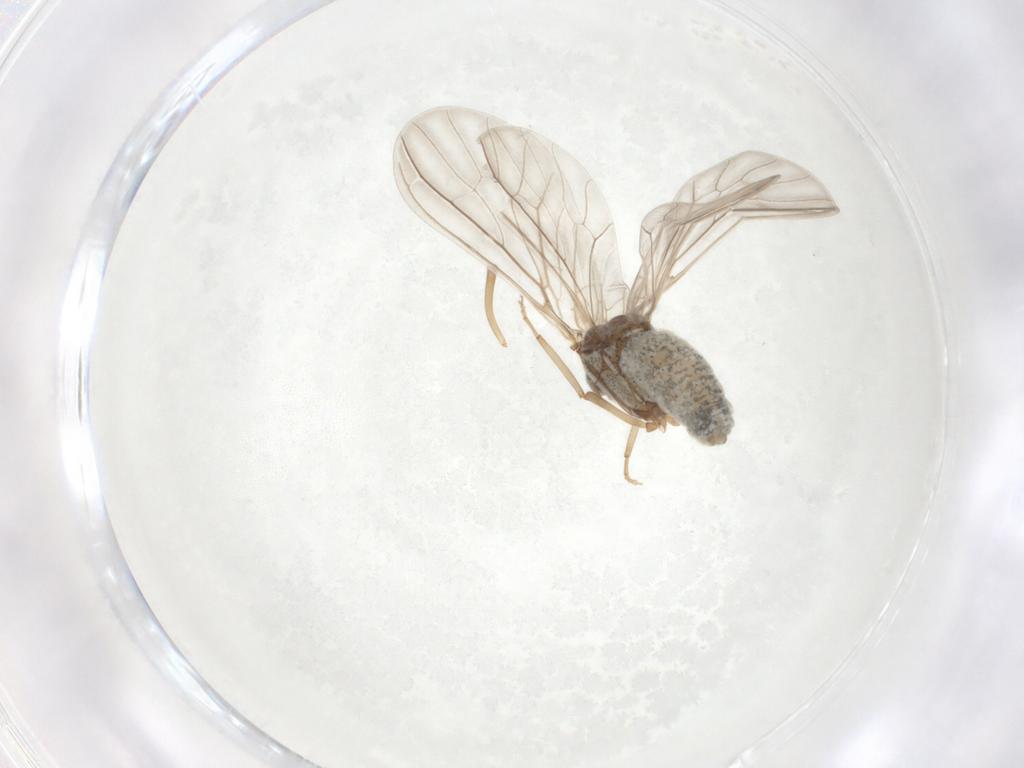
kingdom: Animalia
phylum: Arthropoda
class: Insecta
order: Neuroptera
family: Coniopterygidae
